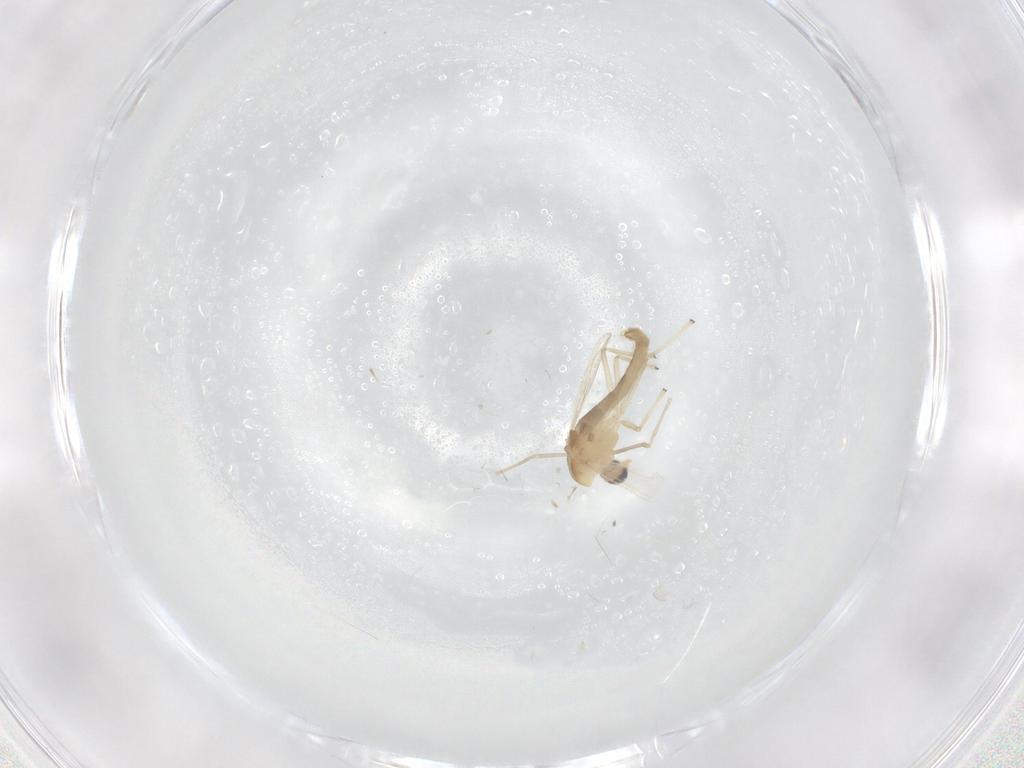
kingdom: Animalia
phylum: Arthropoda
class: Insecta
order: Diptera
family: Chironomidae
